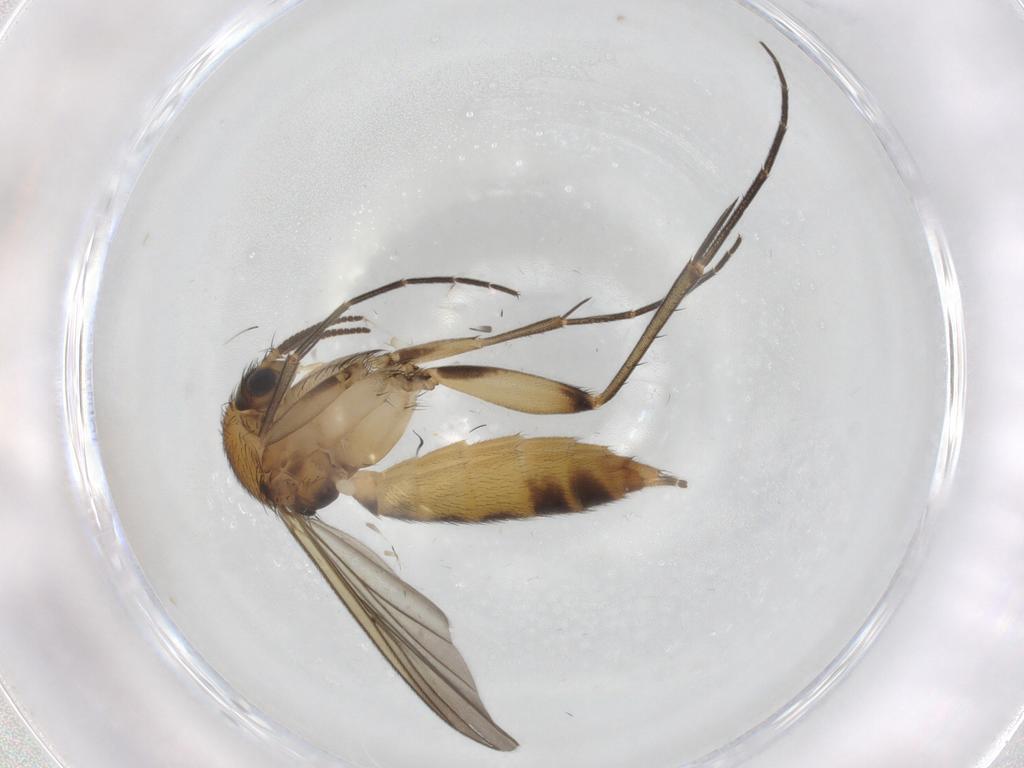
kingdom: Animalia
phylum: Arthropoda
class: Insecta
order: Diptera
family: Mycetophilidae
